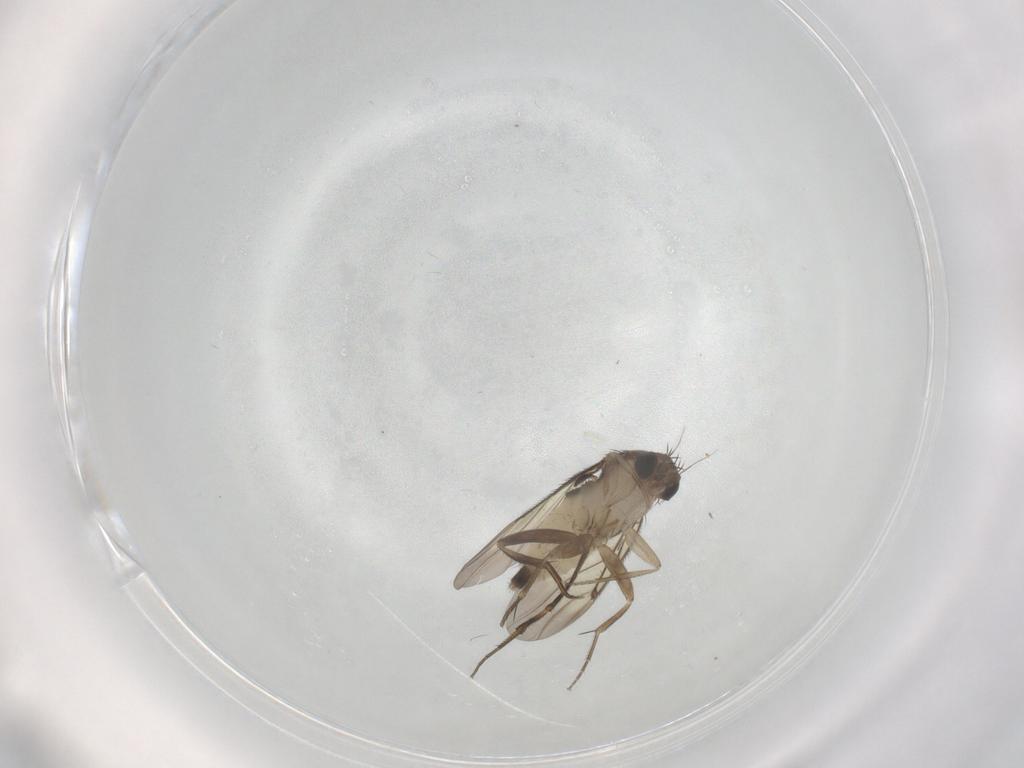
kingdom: Animalia
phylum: Arthropoda
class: Insecta
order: Diptera
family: Phoridae
